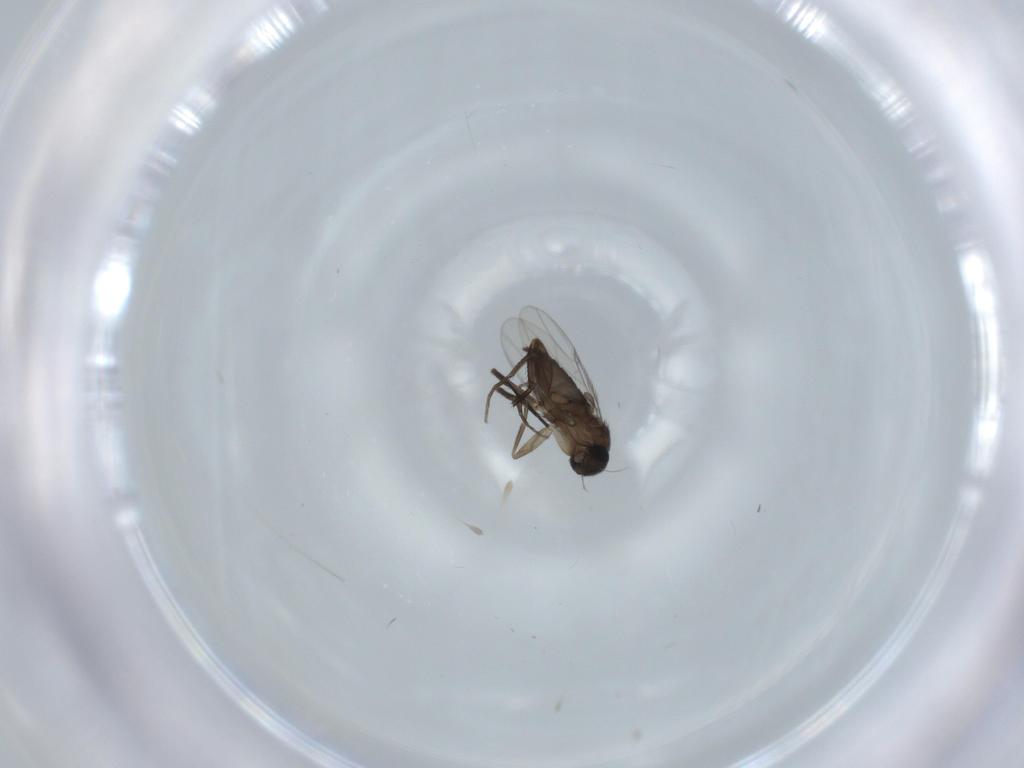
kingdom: Animalia
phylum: Arthropoda
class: Insecta
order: Diptera
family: Phoridae
